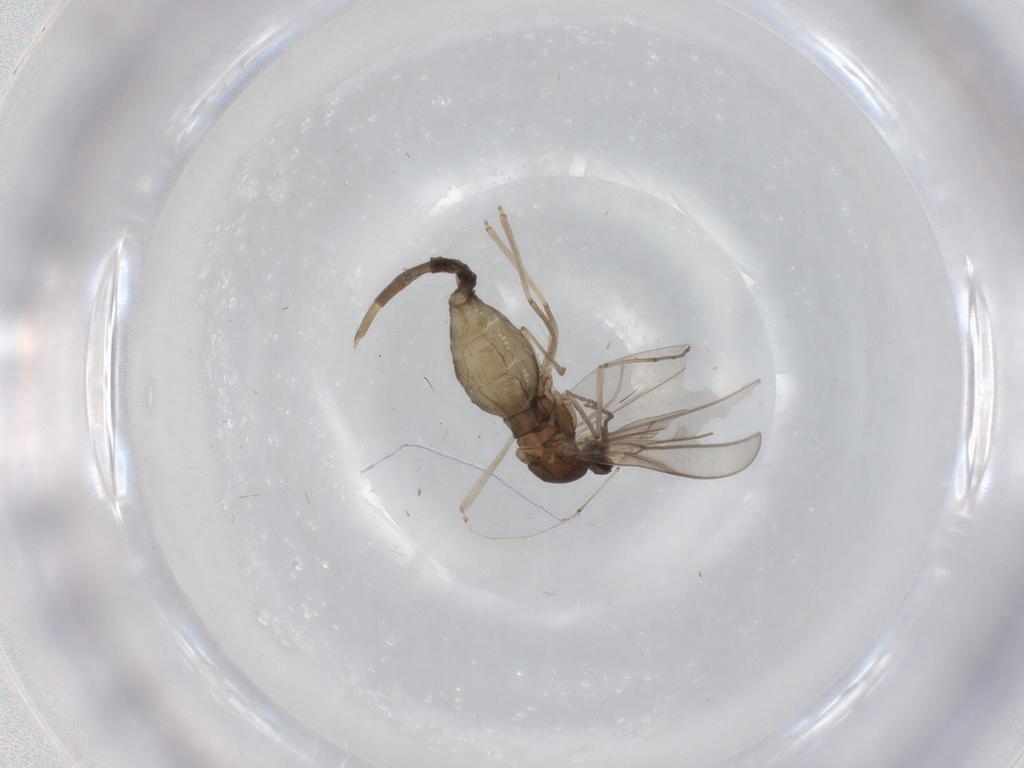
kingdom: Animalia
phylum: Arthropoda
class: Insecta
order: Diptera
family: Cecidomyiidae
